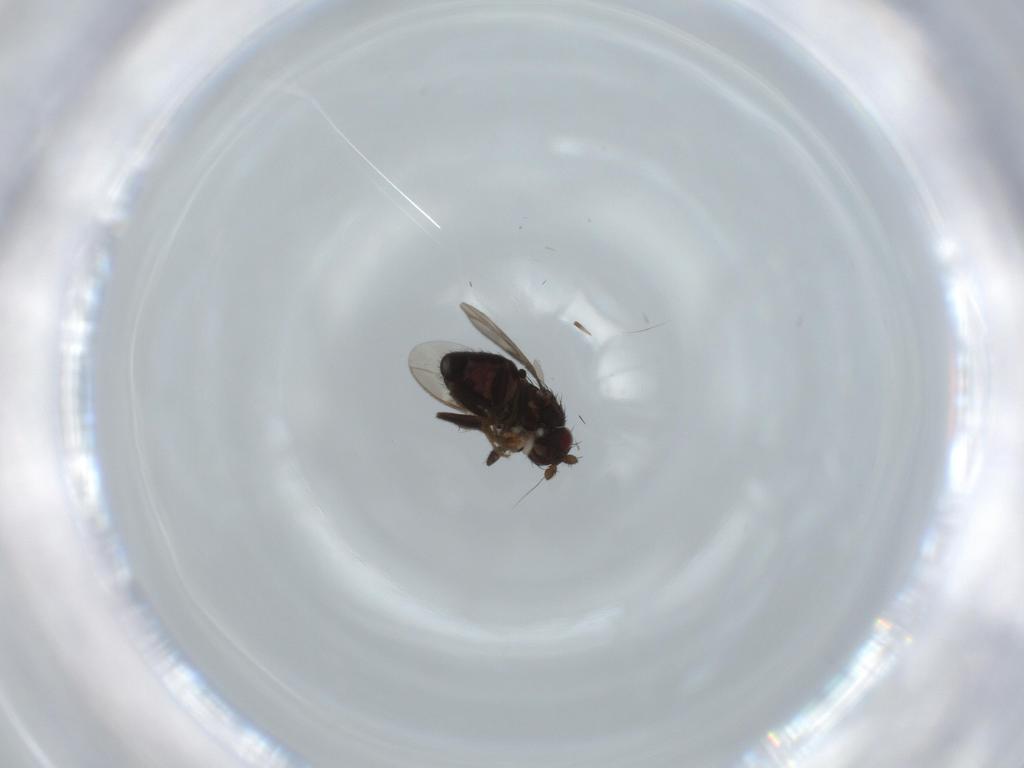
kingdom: Animalia
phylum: Arthropoda
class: Insecta
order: Diptera
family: Sphaeroceridae
